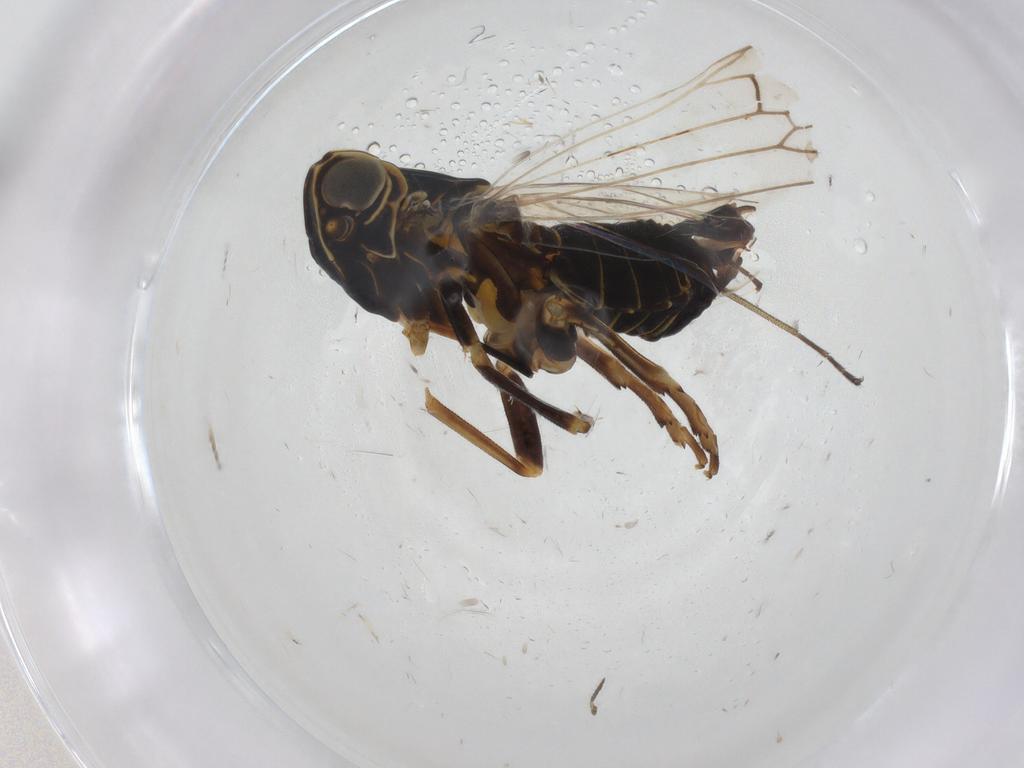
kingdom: Animalia
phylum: Arthropoda
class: Insecta
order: Hemiptera
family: Cixiidae
